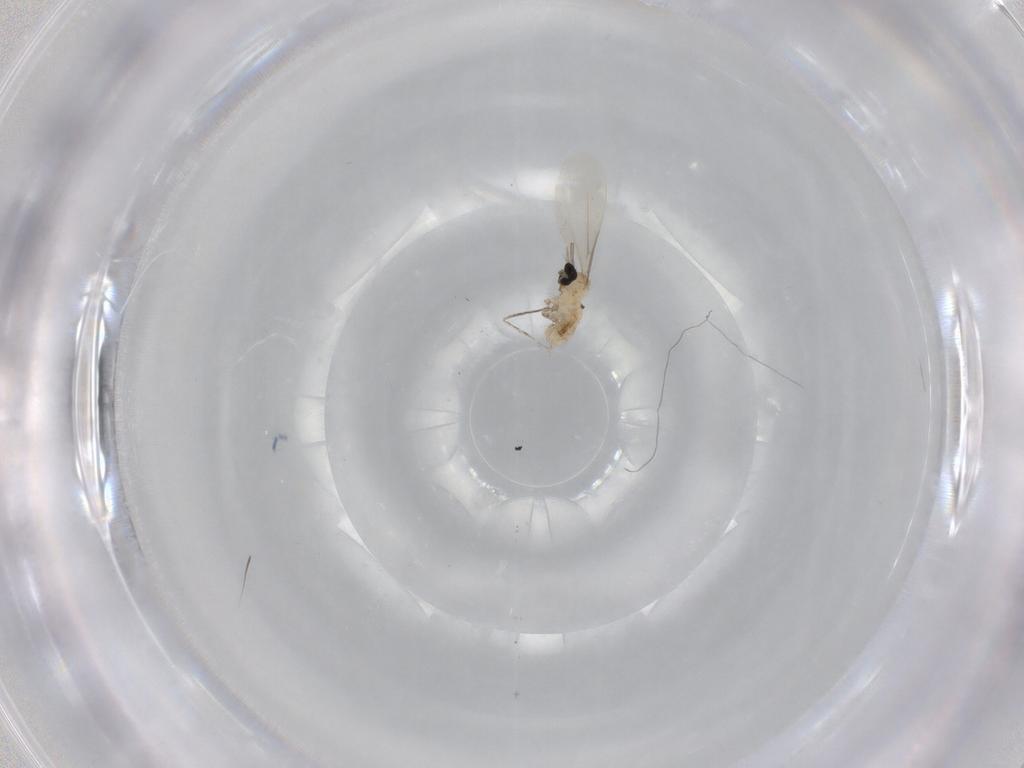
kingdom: Animalia
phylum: Arthropoda
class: Insecta
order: Diptera
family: Cecidomyiidae
